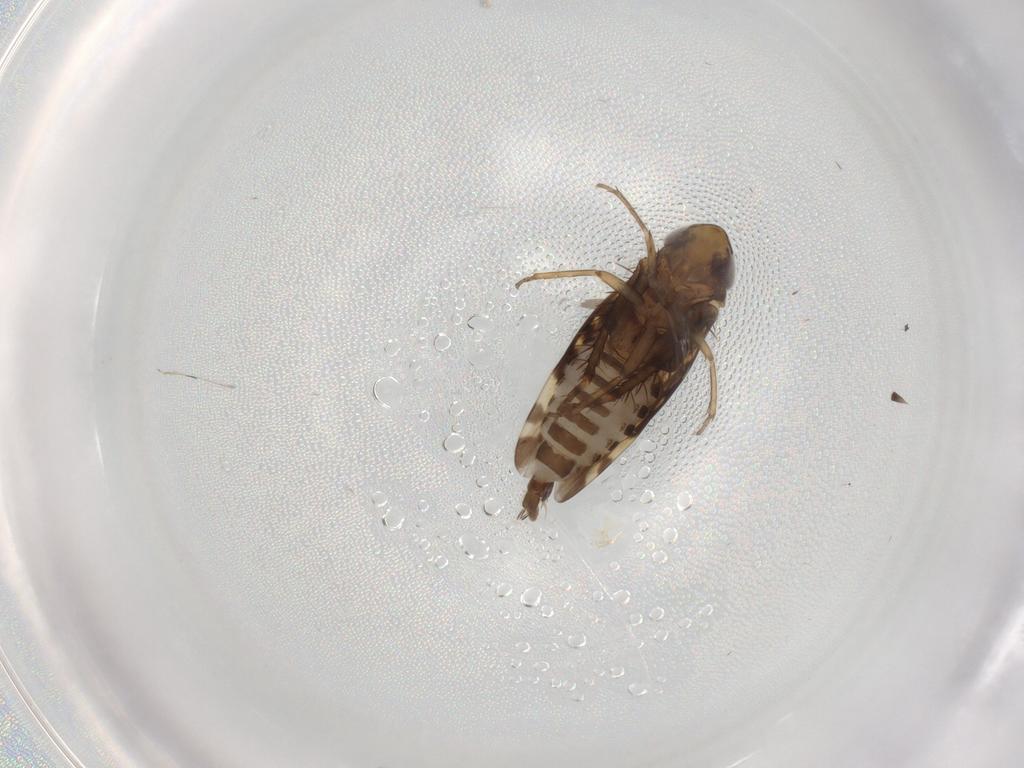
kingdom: Animalia
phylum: Arthropoda
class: Insecta
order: Hemiptera
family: Cicadellidae
